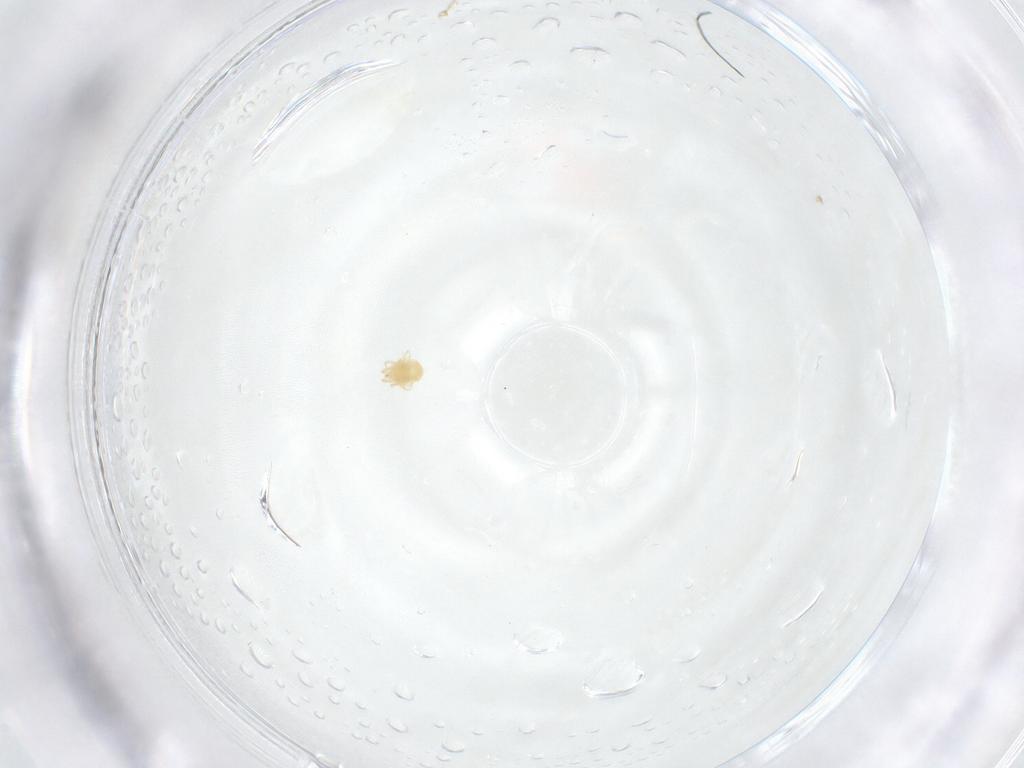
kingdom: Animalia
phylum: Arthropoda
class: Arachnida
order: Trombidiformes
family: Tetranychidae
